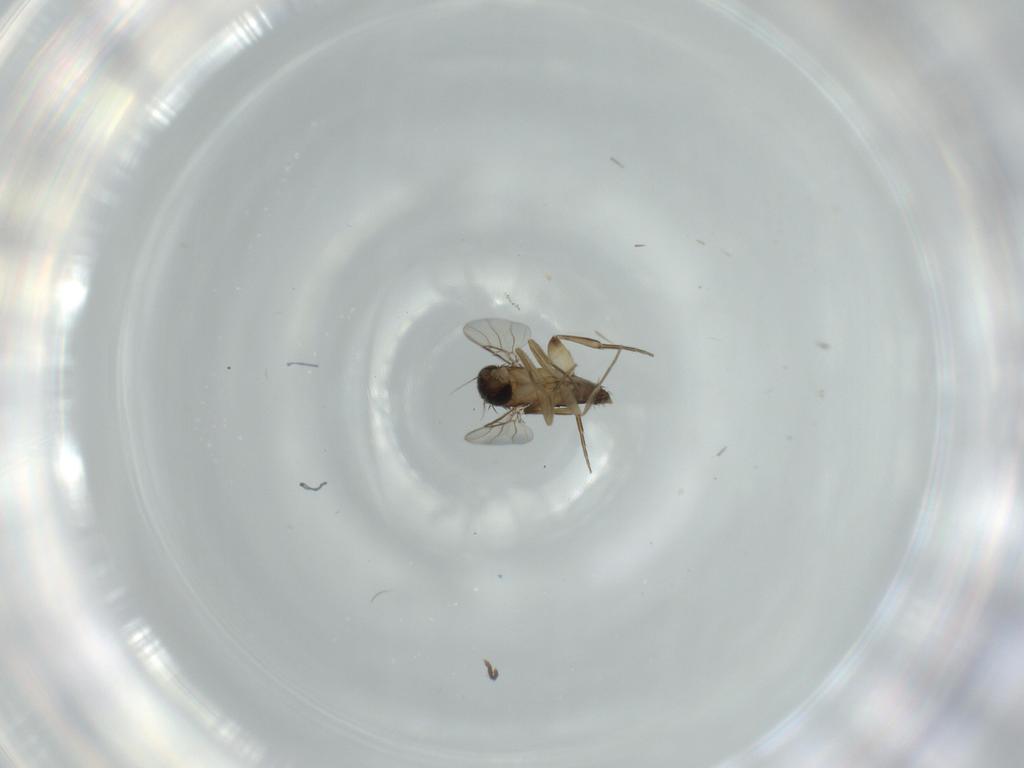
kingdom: Animalia
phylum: Arthropoda
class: Insecta
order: Diptera
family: Phoridae
